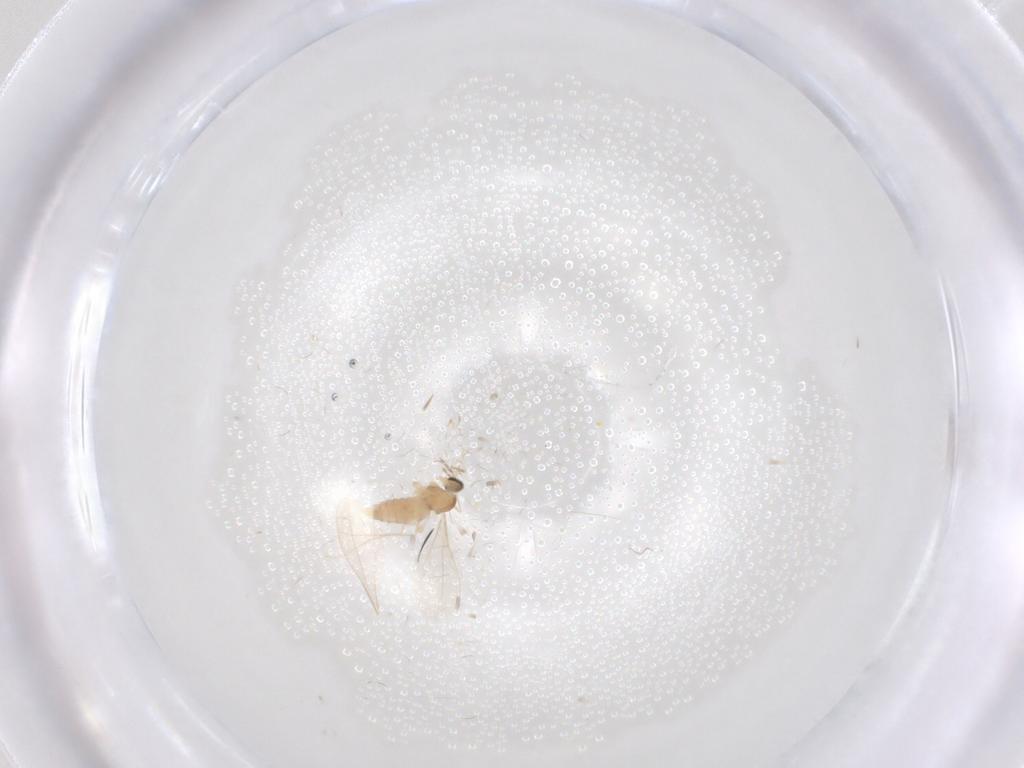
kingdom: Animalia
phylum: Arthropoda
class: Insecta
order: Diptera
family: Cecidomyiidae
